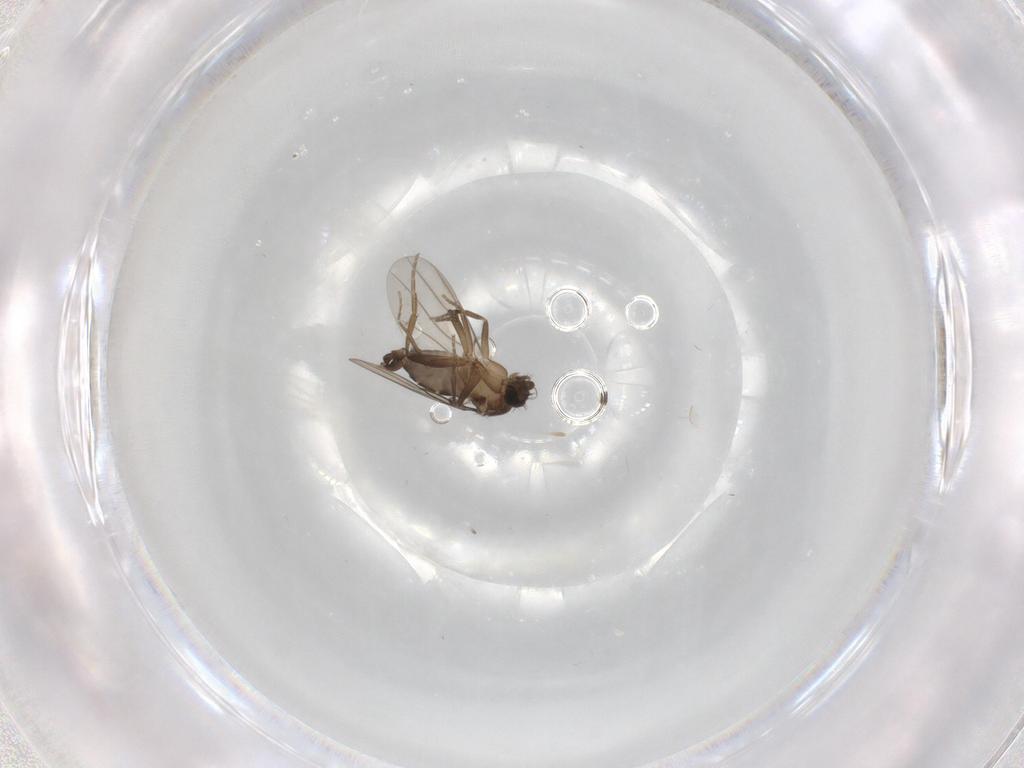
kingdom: Animalia
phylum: Arthropoda
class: Insecta
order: Diptera
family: Phoridae
